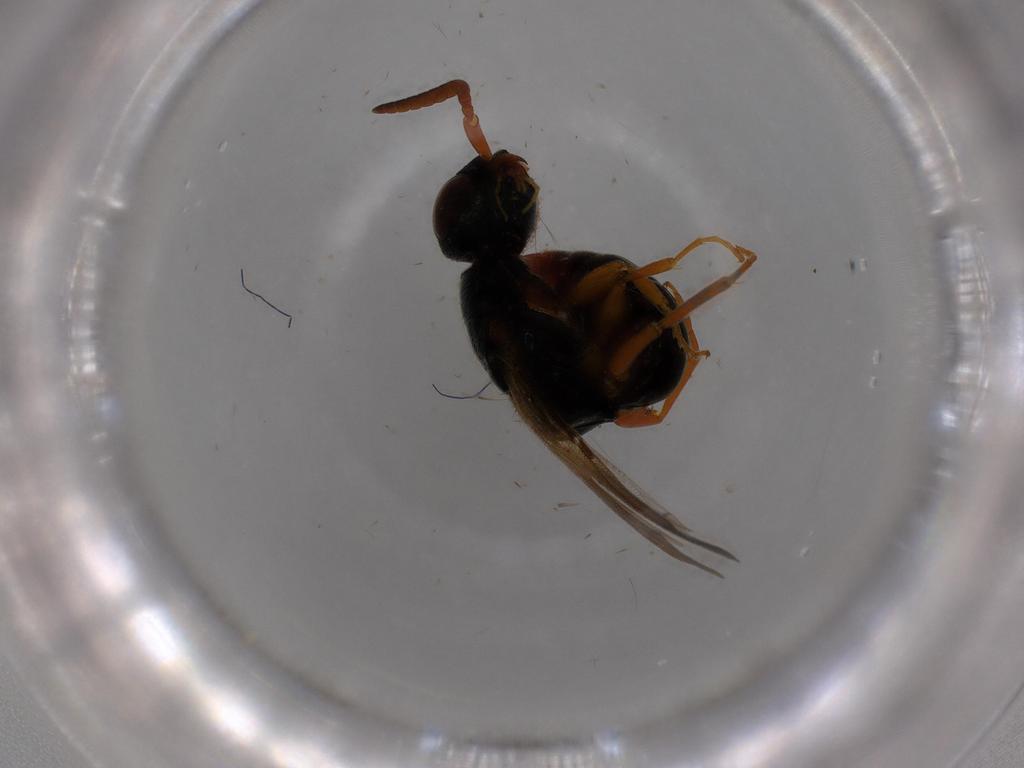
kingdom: Animalia
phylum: Arthropoda
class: Insecta
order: Hymenoptera
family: Bethylidae
